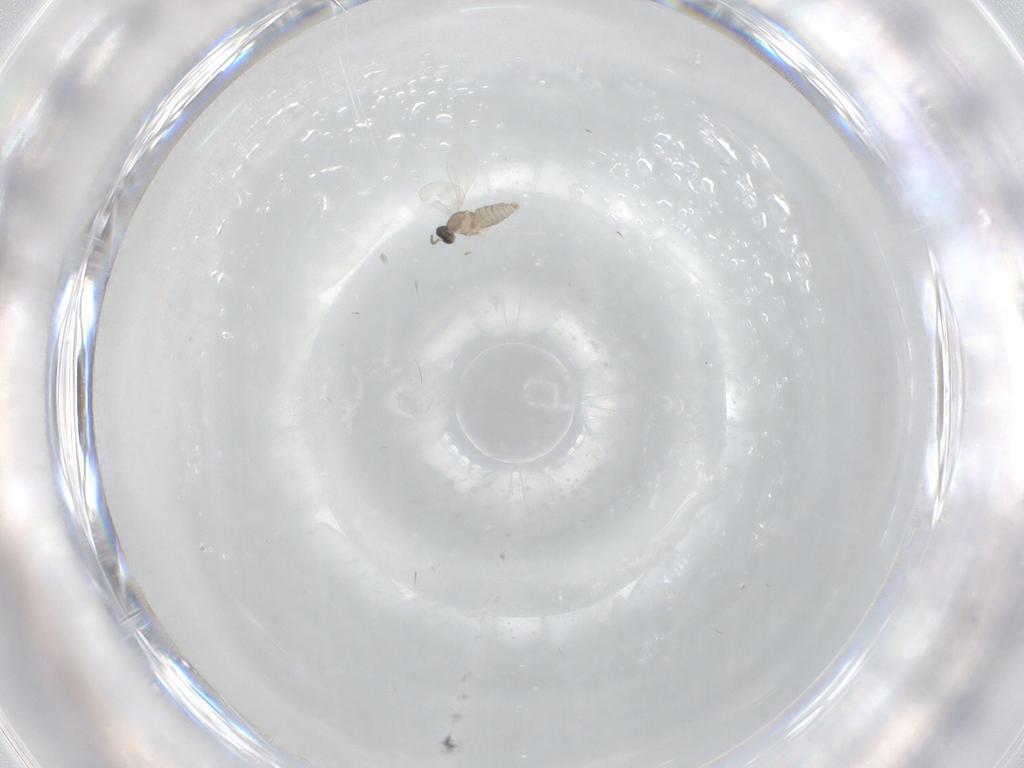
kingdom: Animalia
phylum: Arthropoda
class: Insecta
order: Diptera
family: Cecidomyiidae
